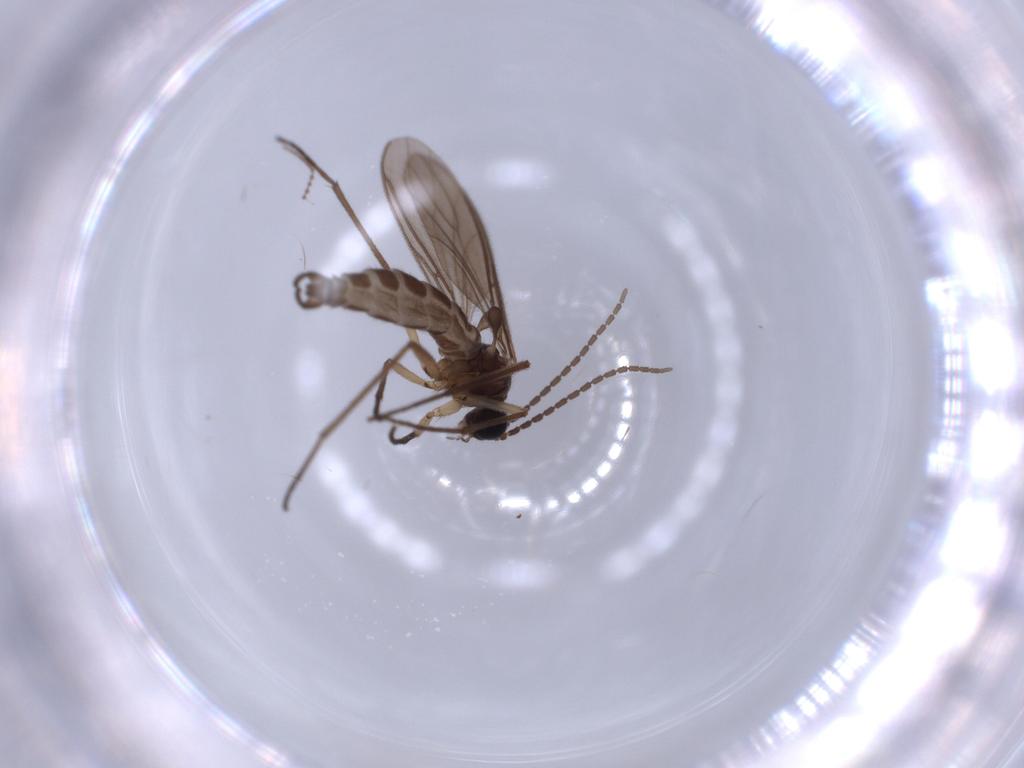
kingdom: Animalia
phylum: Arthropoda
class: Insecta
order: Diptera
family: Sciaridae
